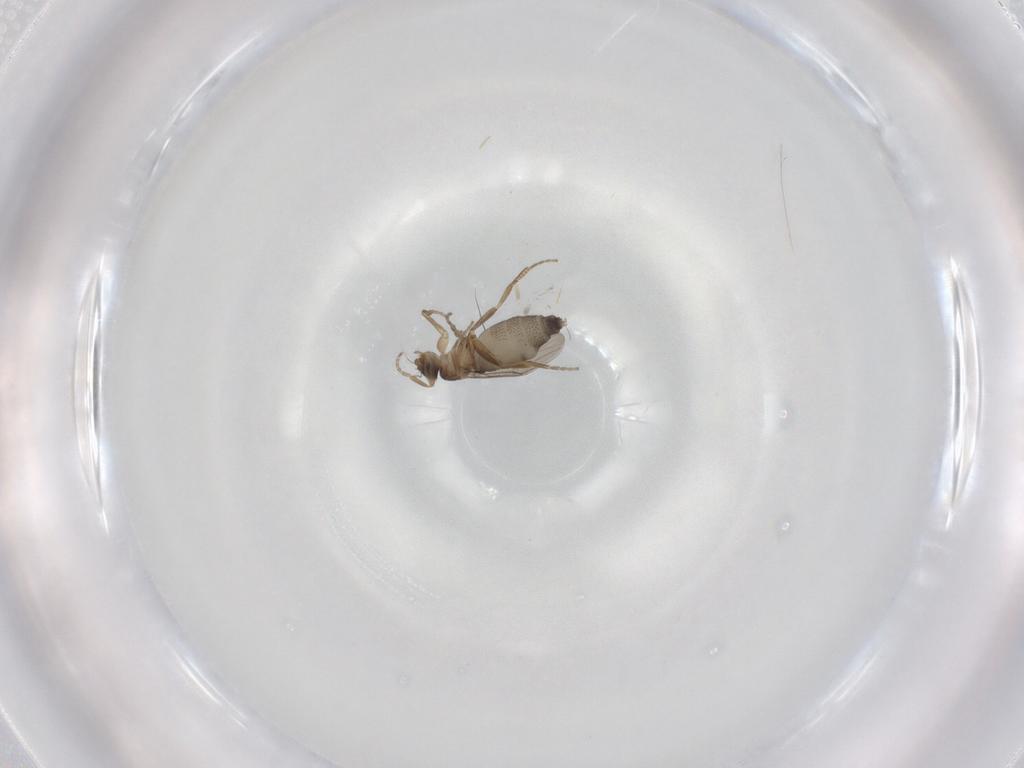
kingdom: Animalia
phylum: Arthropoda
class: Insecta
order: Diptera
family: Phoridae
